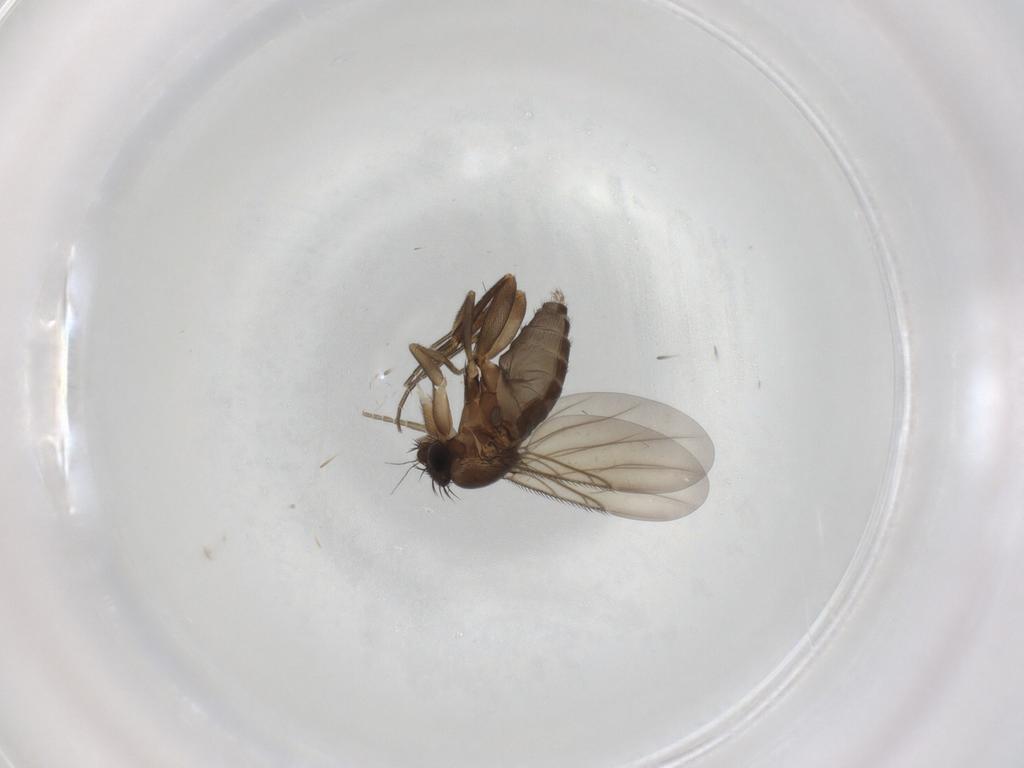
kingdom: Animalia
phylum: Arthropoda
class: Insecta
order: Diptera
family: Phoridae
